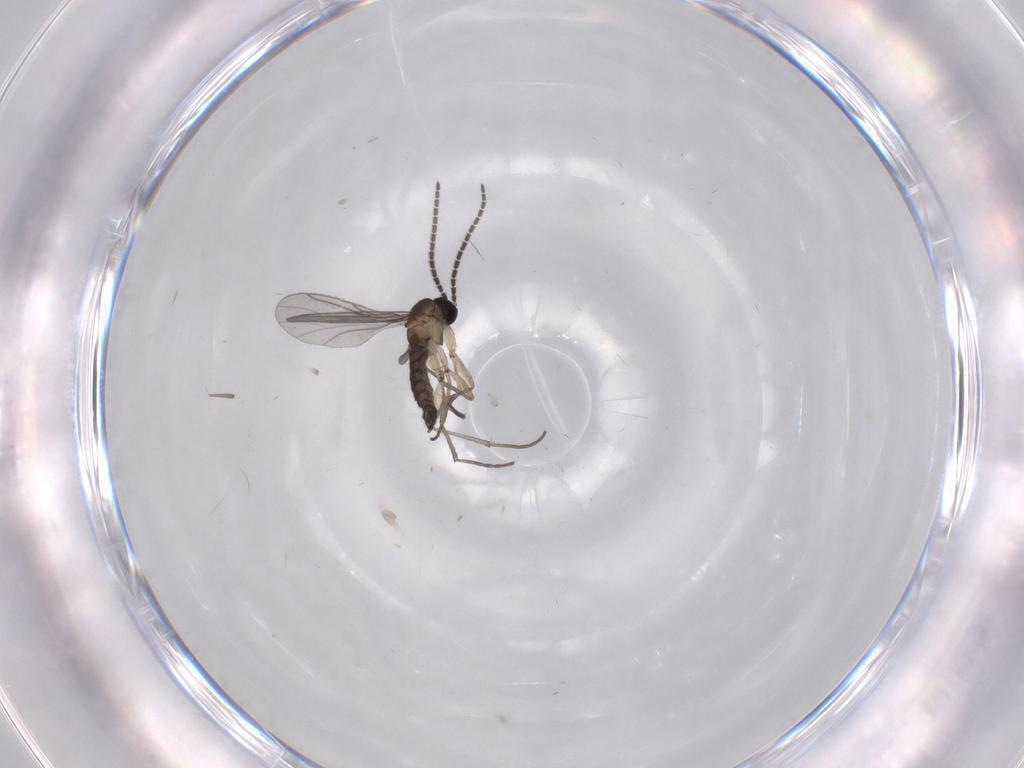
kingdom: Animalia
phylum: Arthropoda
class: Insecta
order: Diptera
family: Sciaridae
